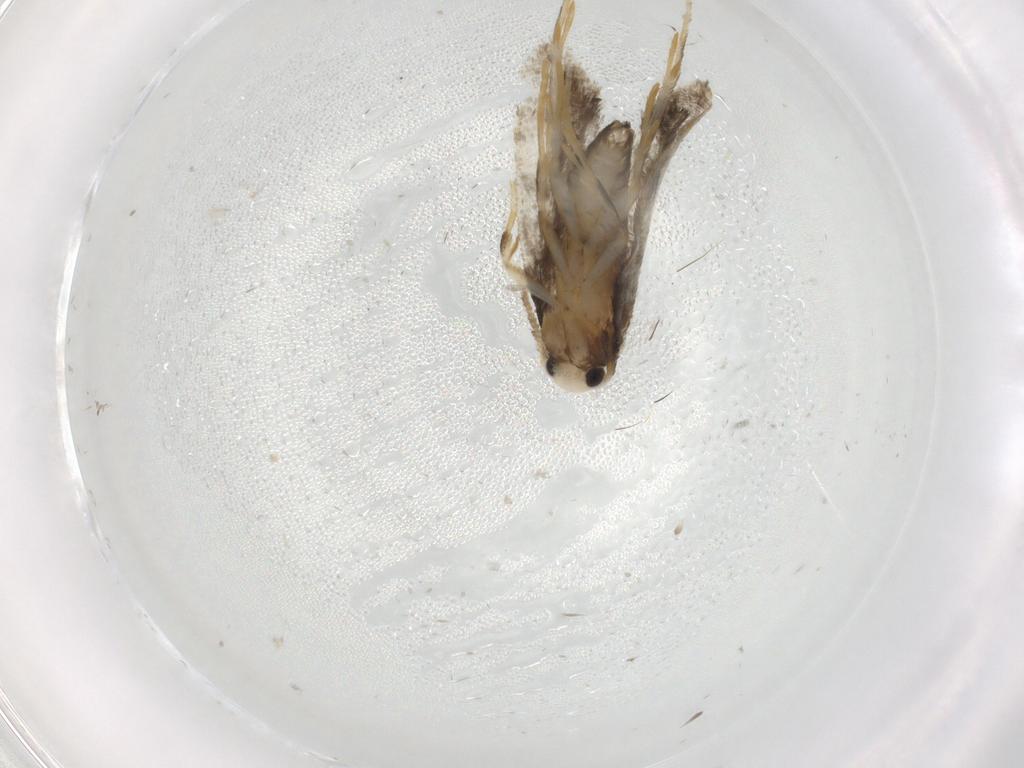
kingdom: Animalia
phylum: Arthropoda
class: Insecta
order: Lepidoptera
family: Psychidae
